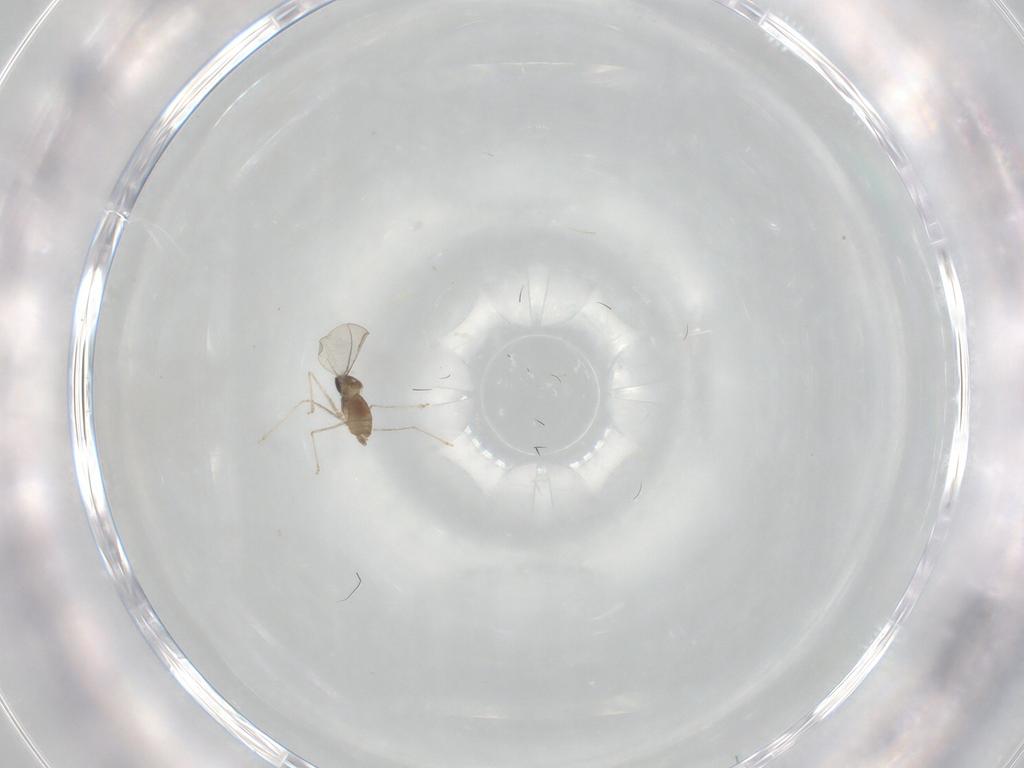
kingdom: Animalia
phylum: Arthropoda
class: Insecta
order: Diptera
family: Cecidomyiidae
